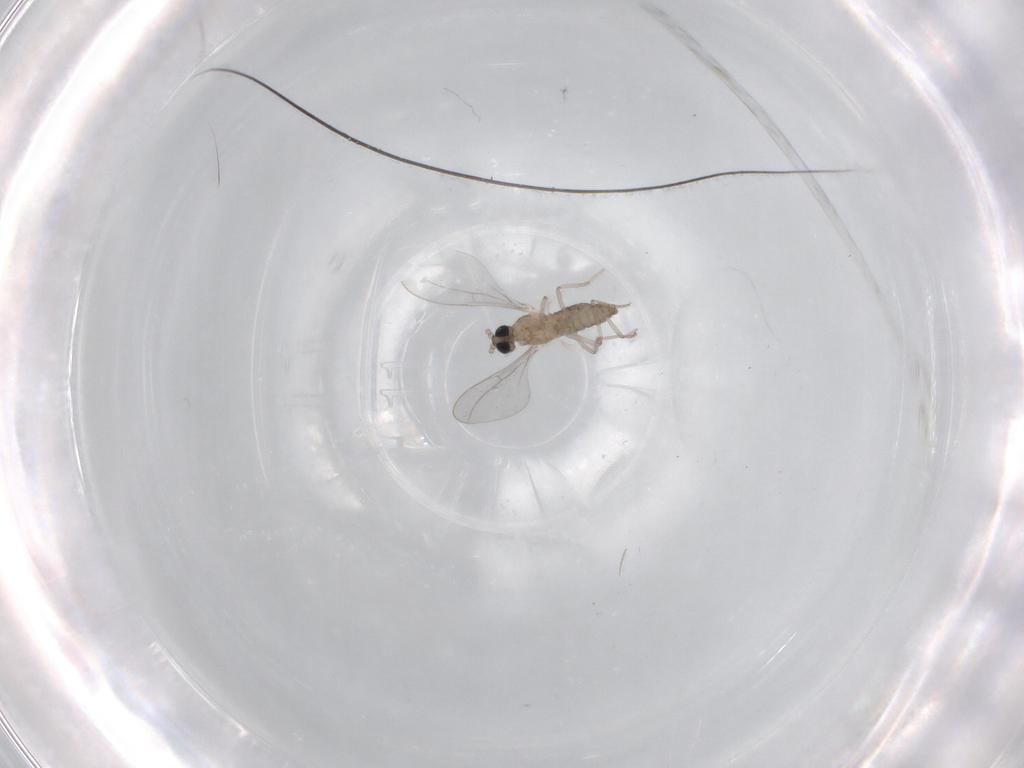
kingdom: Animalia
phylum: Arthropoda
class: Insecta
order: Diptera
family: Cecidomyiidae
